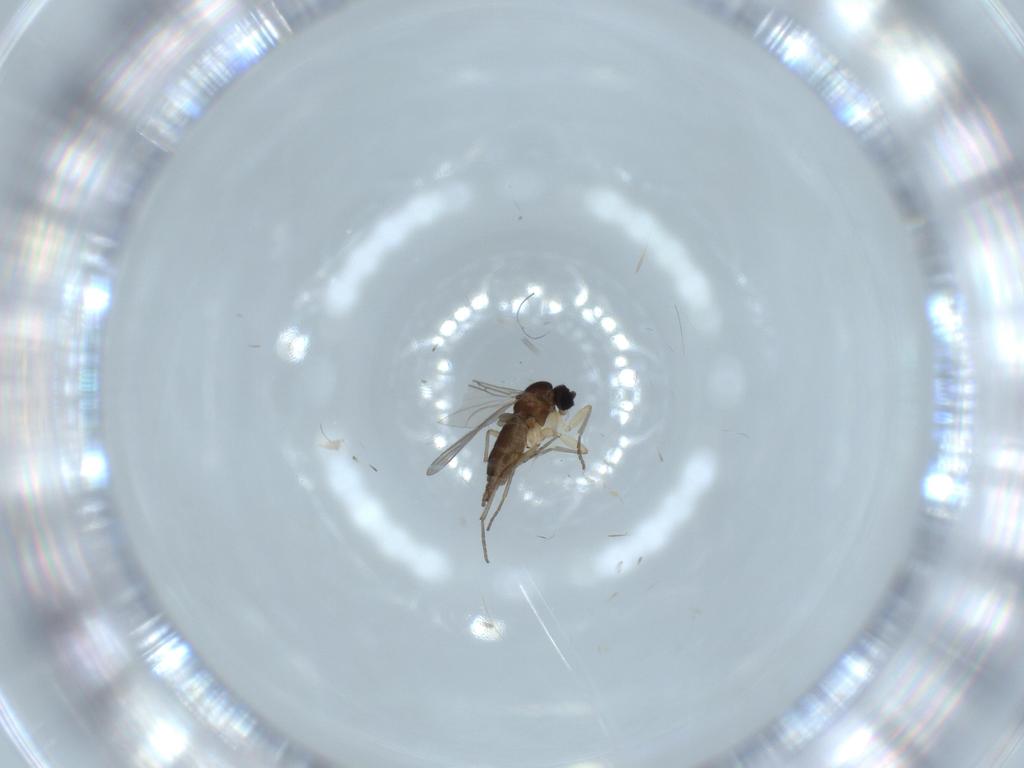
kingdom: Animalia
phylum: Arthropoda
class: Insecta
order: Diptera
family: Sciaridae
